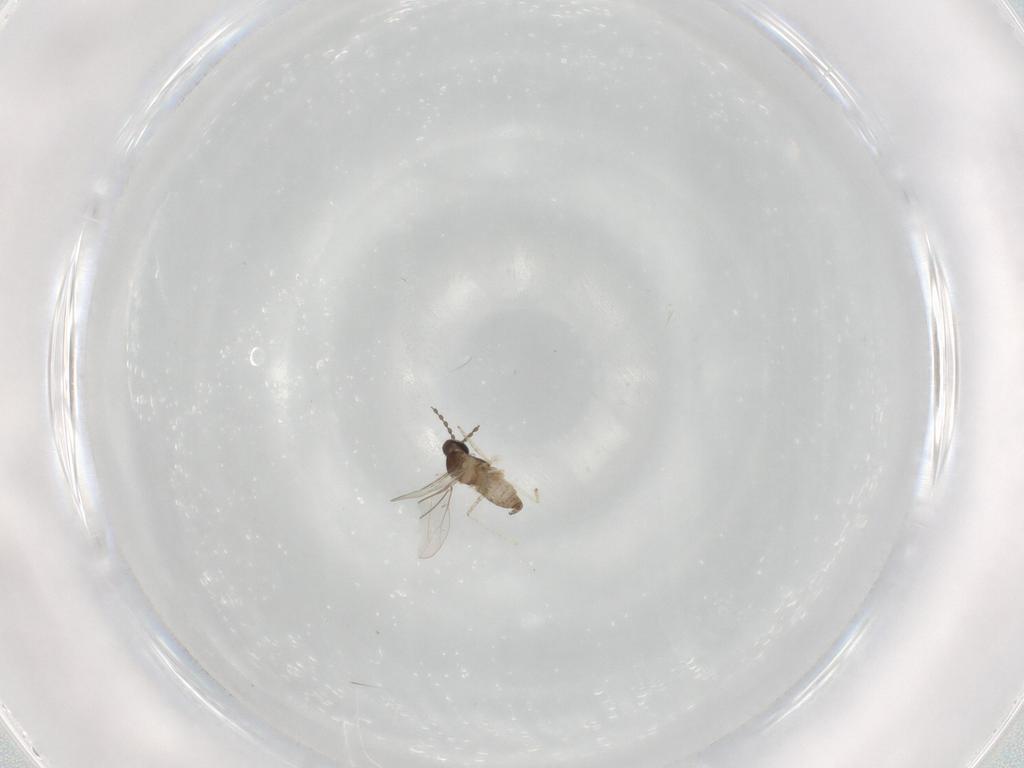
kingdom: Animalia
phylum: Arthropoda
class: Insecta
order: Diptera
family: Cecidomyiidae
